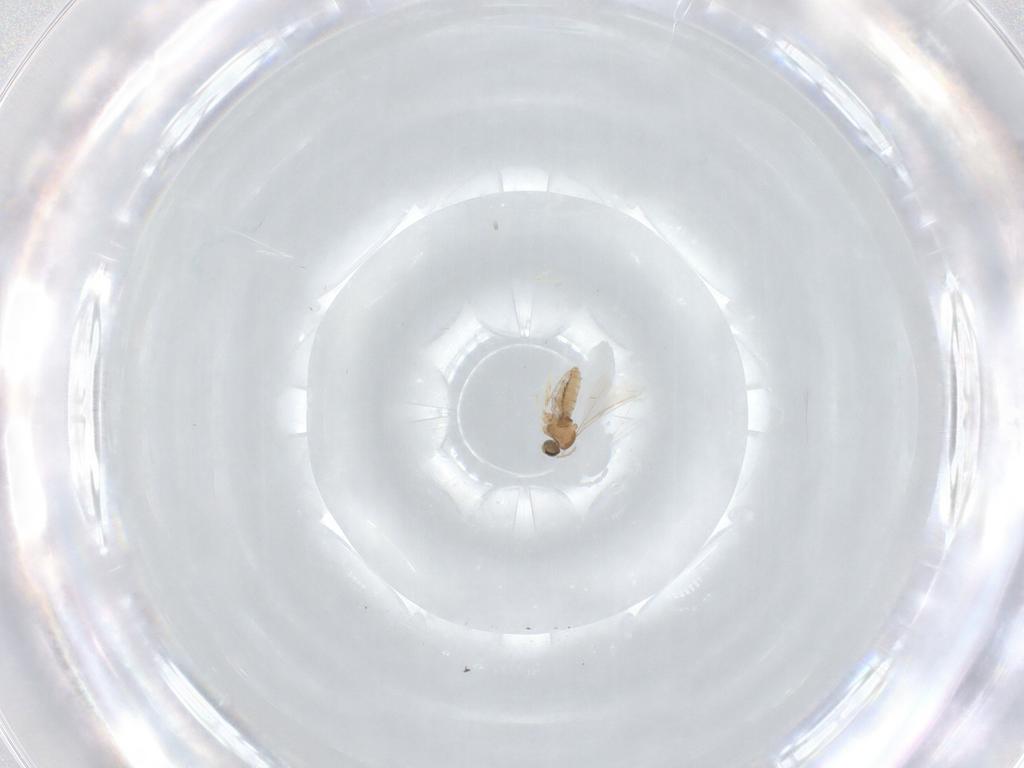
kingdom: Animalia
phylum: Arthropoda
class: Insecta
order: Diptera
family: Cecidomyiidae
